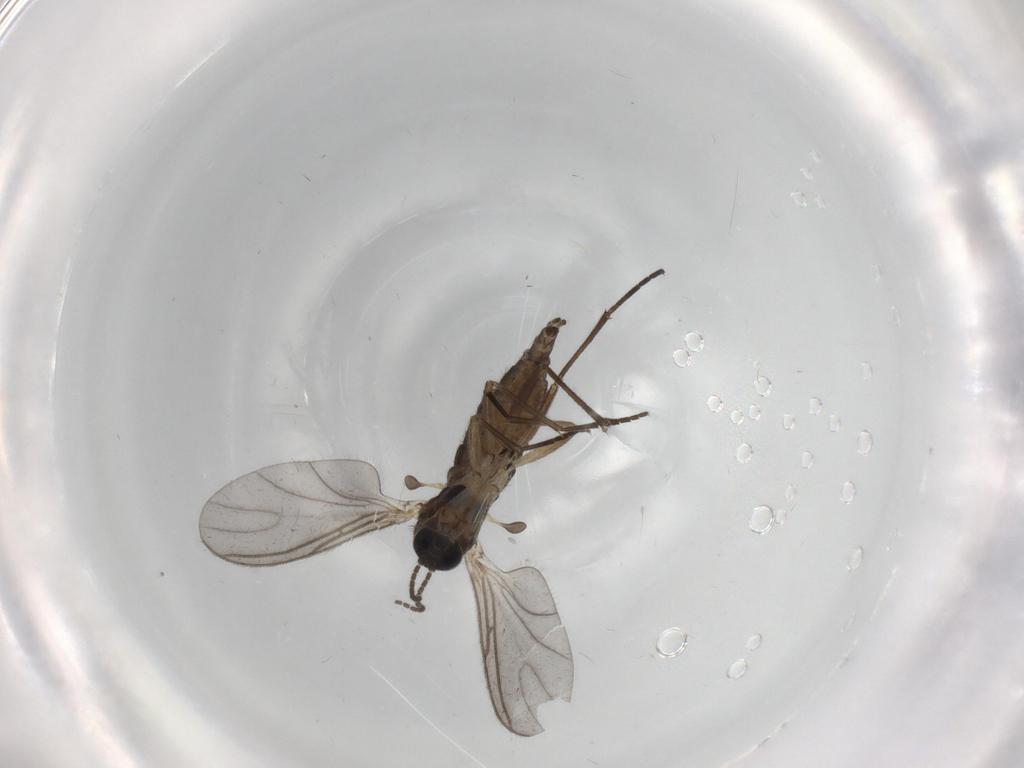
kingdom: Animalia
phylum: Arthropoda
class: Insecta
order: Diptera
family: Sciaridae
